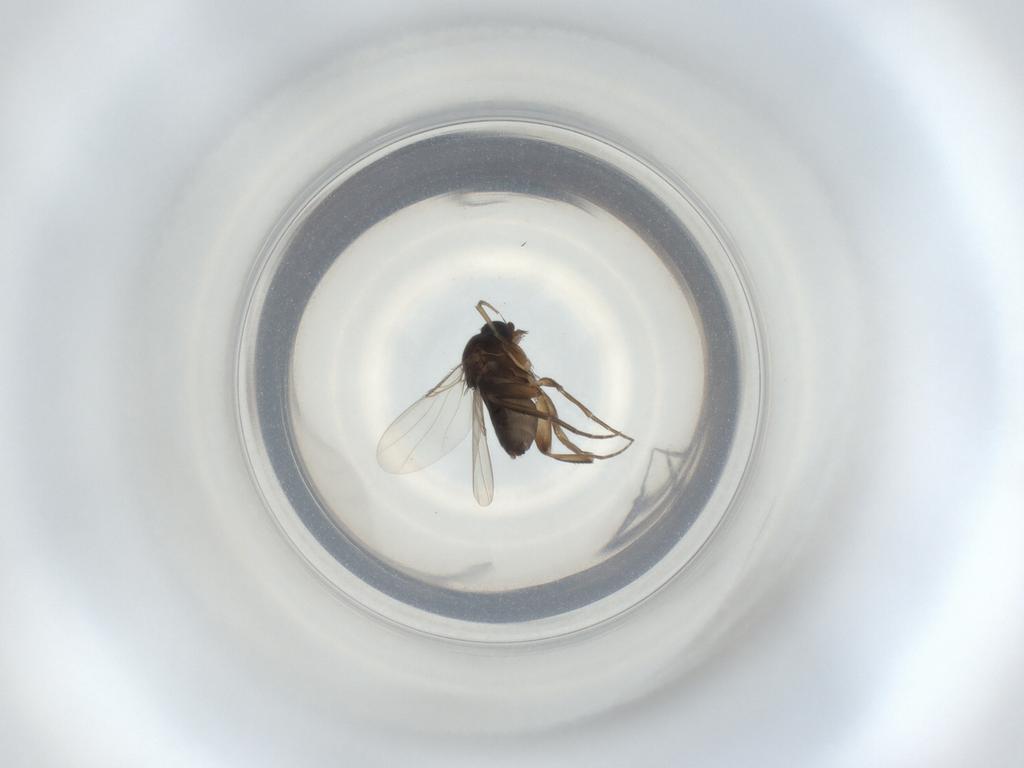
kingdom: Animalia
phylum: Arthropoda
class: Insecta
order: Diptera
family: Phoridae
